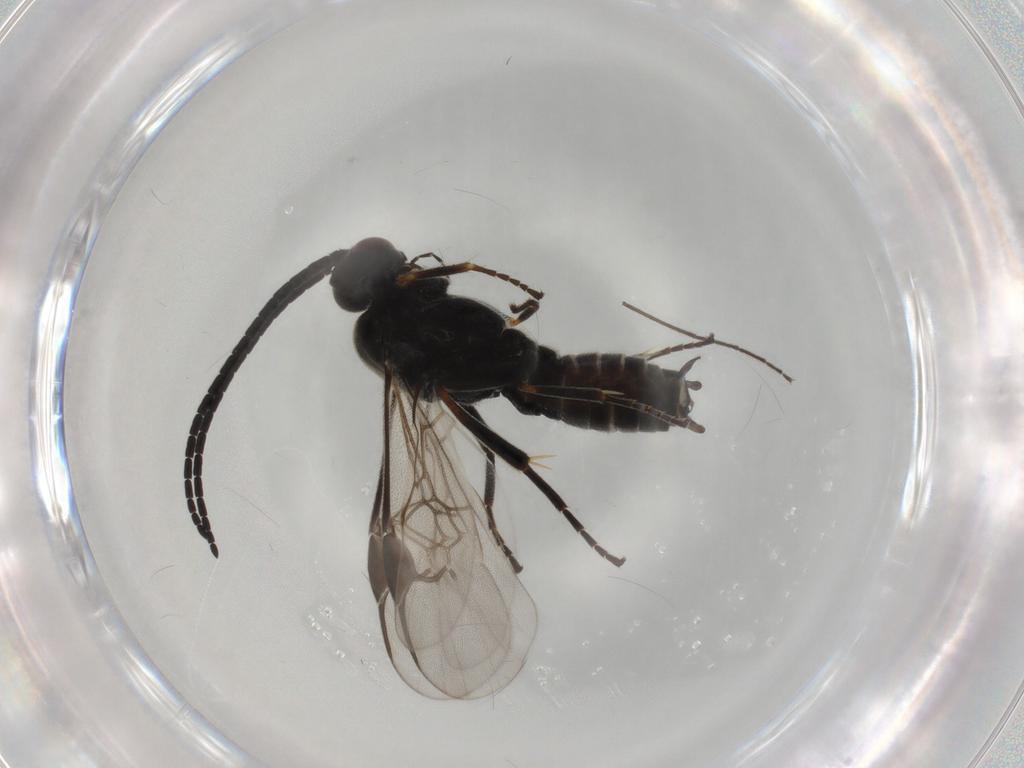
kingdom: Animalia
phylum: Arthropoda
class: Insecta
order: Hymenoptera
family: Braconidae
